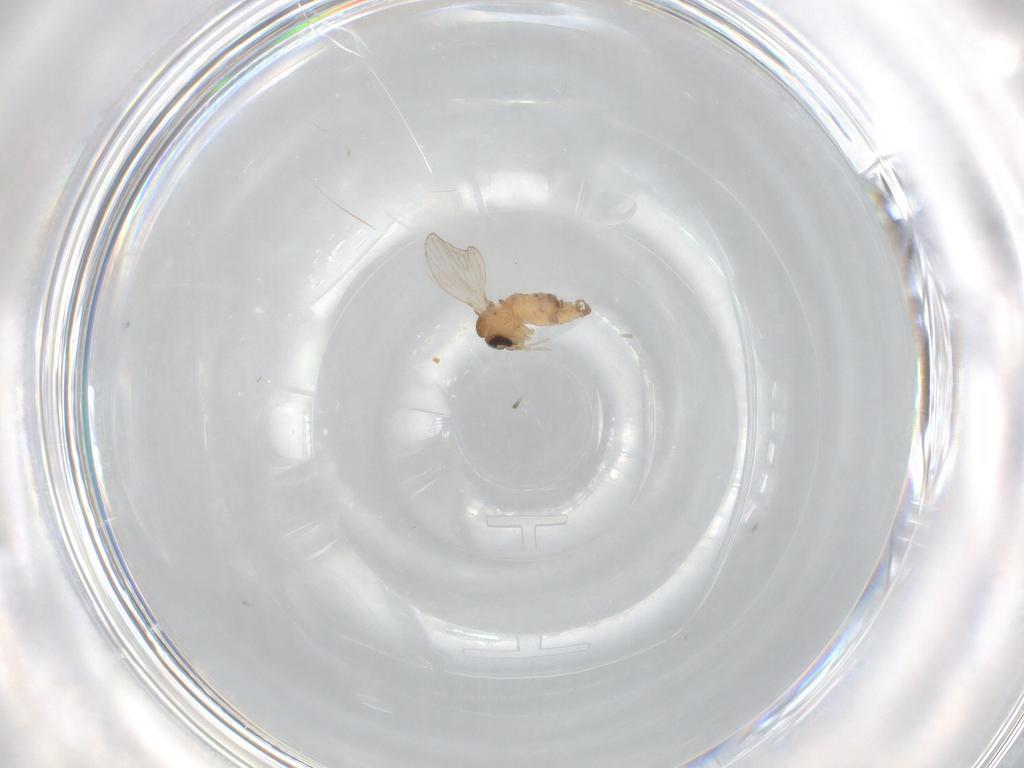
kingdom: Animalia
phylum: Arthropoda
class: Insecta
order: Diptera
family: Psychodidae
